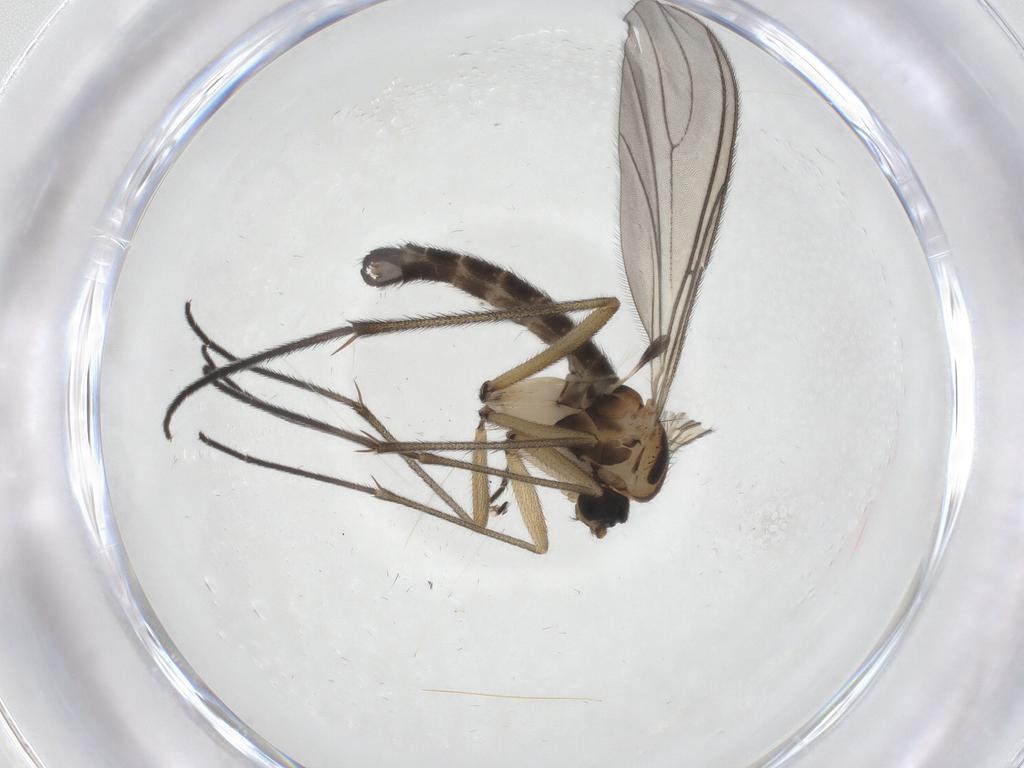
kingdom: Animalia
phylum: Arthropoda
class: Insecta
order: Diptera
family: Sciaridae
